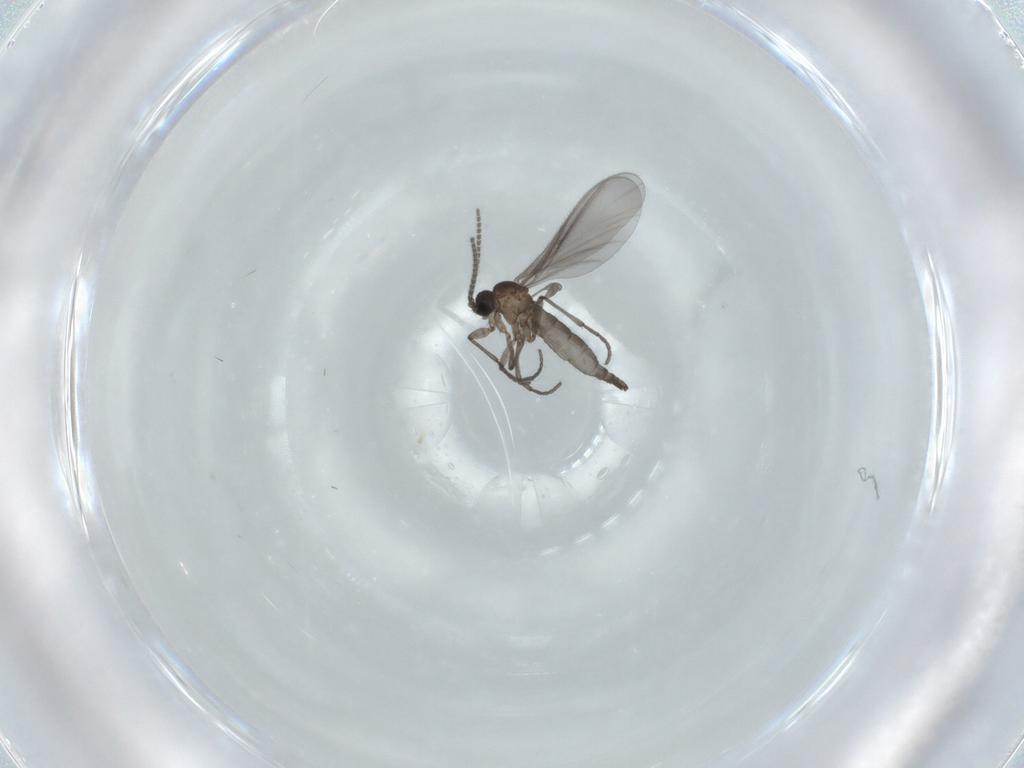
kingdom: Animalia
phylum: Arthropoda
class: Insecta
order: Diptera
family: Sciaridae
